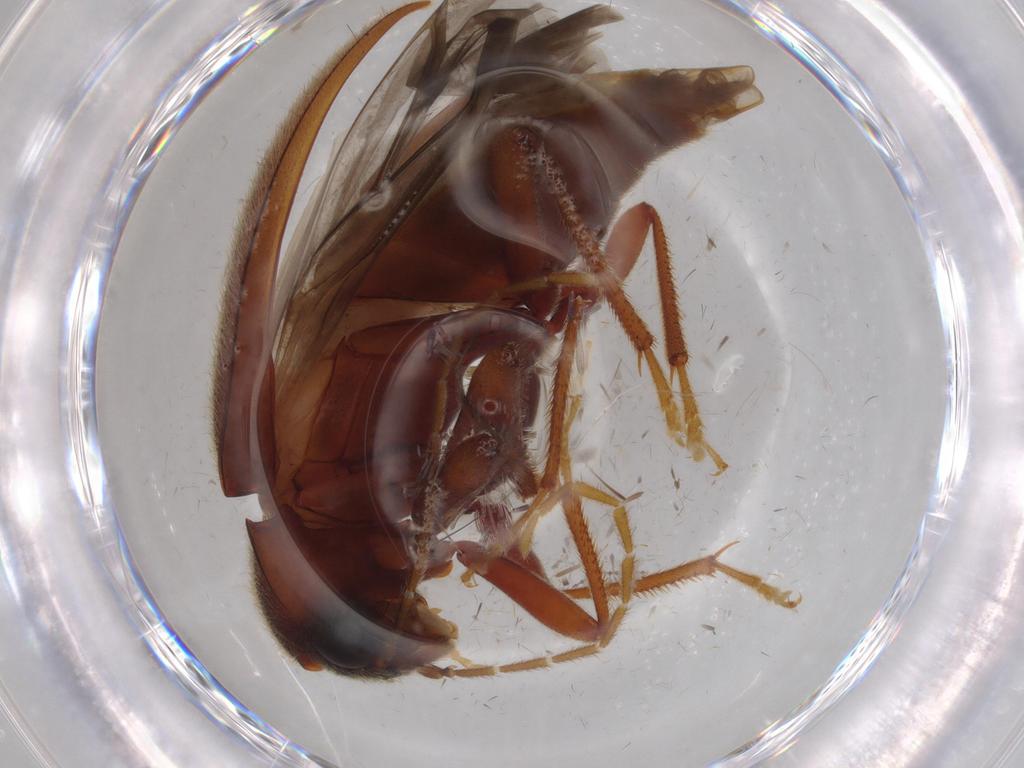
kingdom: Animalia
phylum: Arthropoda
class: Insecta
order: Coleoptera
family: Ptilodactylidae
